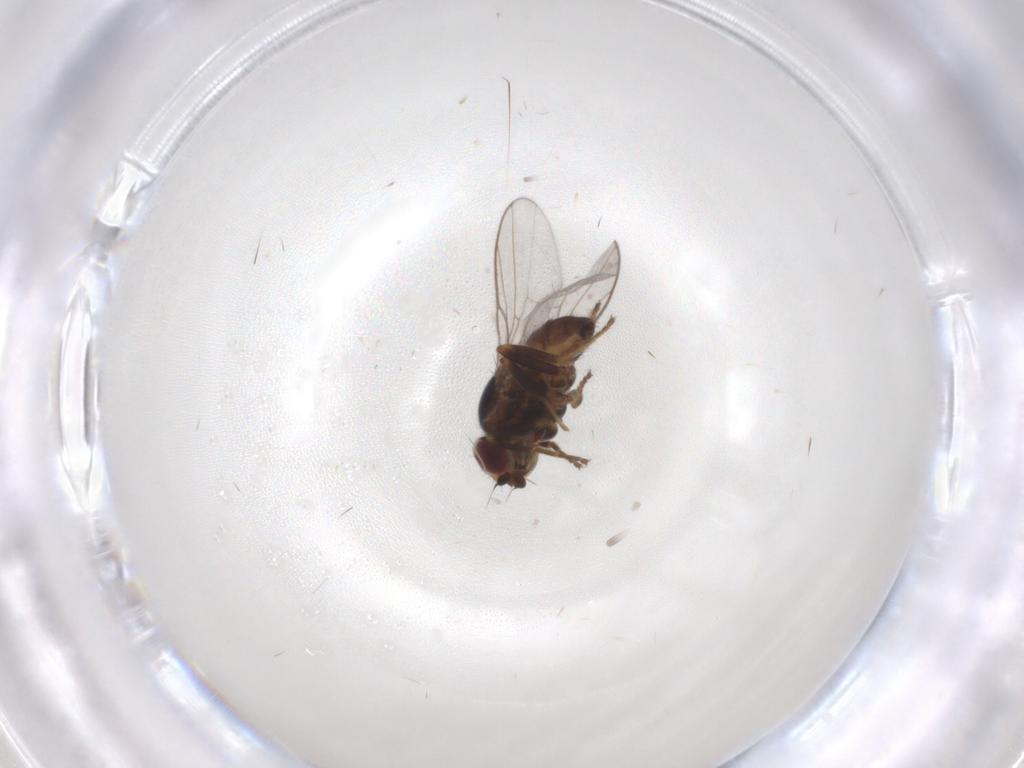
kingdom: Animalia
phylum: Arthropoda
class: Insecta
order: Diptera
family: Chloropidae
